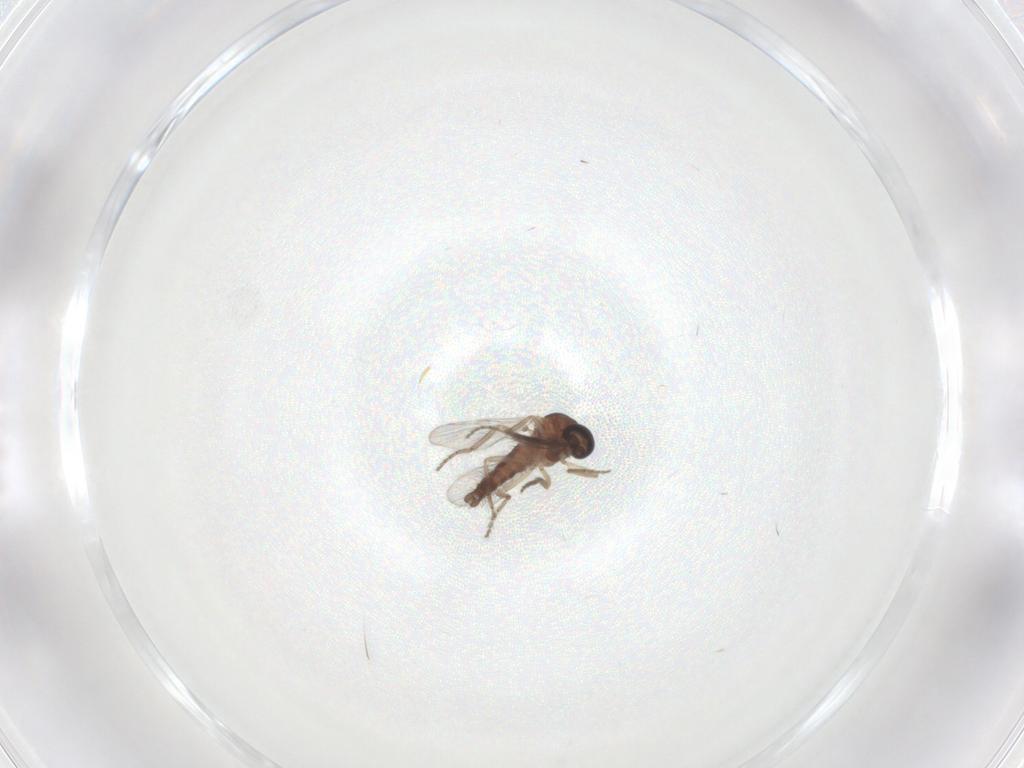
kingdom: Animalia
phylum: Arthropoda
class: Insecta
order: Diptera
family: Ceratopogonidae
